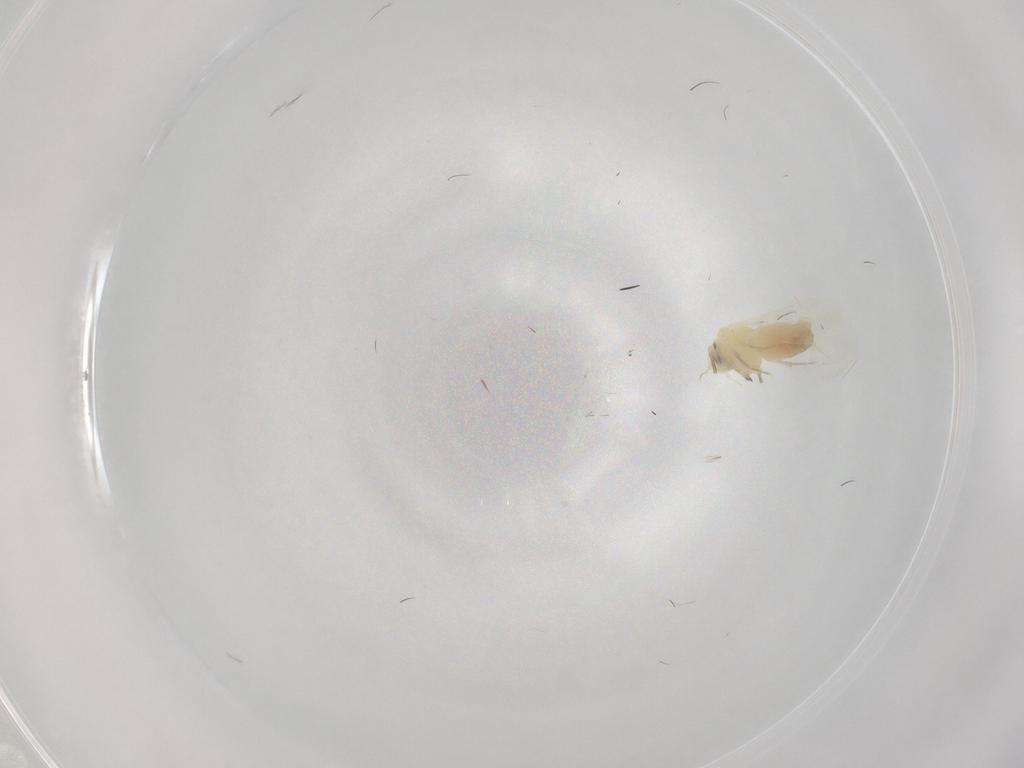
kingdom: Animalia
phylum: Arthropoda
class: Insecta
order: Hemiptera
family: Aleyrodidae
